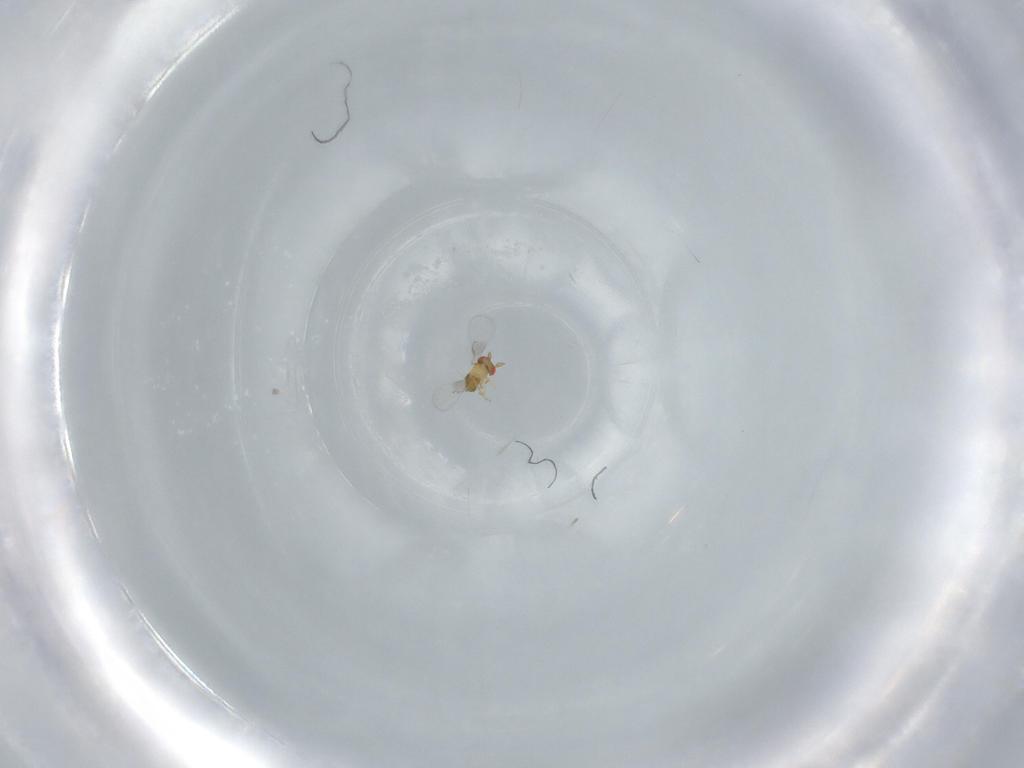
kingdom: Animalia
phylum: Arthropoda
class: Insecta
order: Hymenoptera
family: Trichogrammatidae
